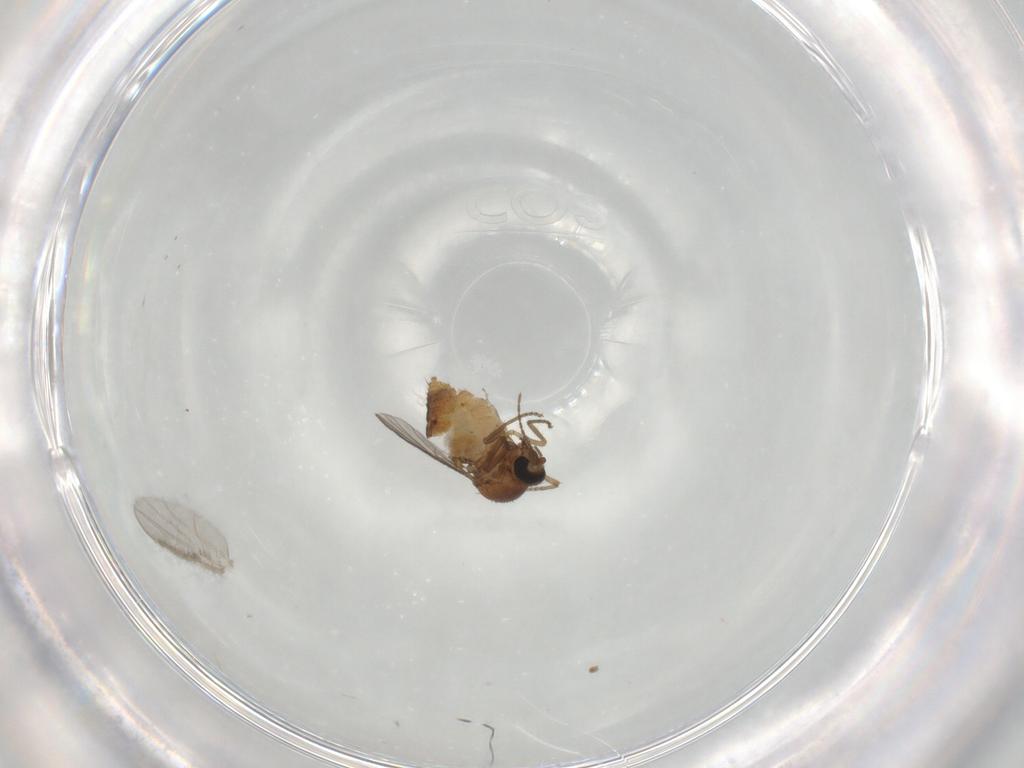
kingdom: Animalia
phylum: Arthropoda
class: Insecta
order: Diptera
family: Ceratopogonidae
